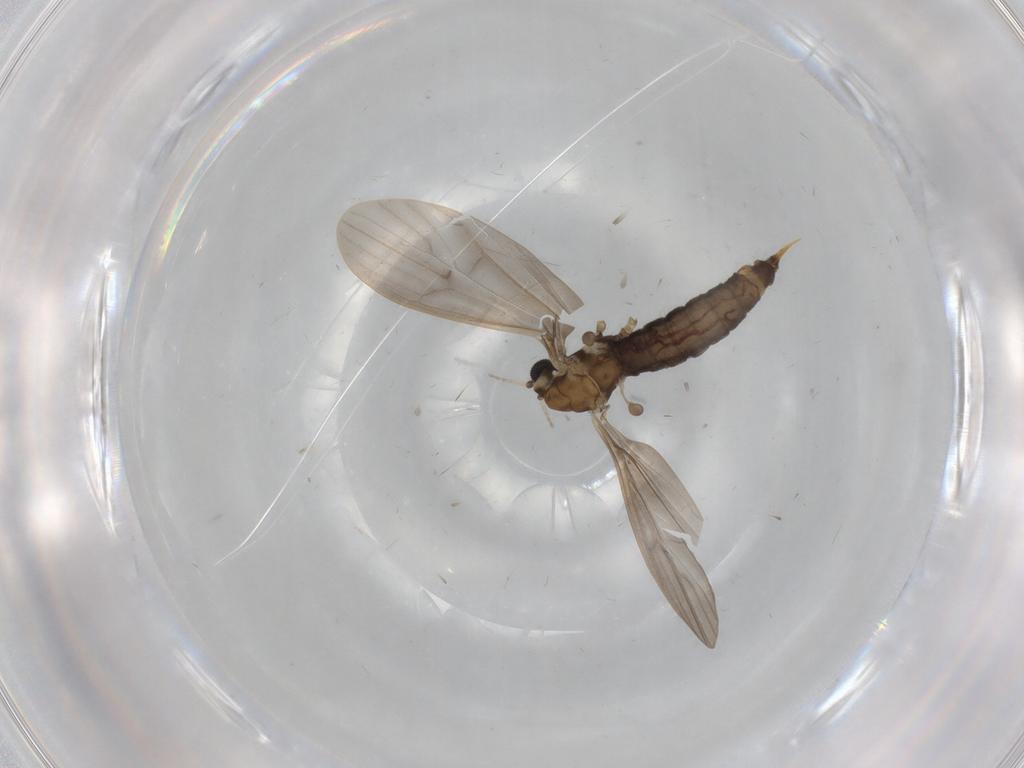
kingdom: Animalia
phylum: Arthropoda
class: Insecta
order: Diptera
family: Limoniidae
